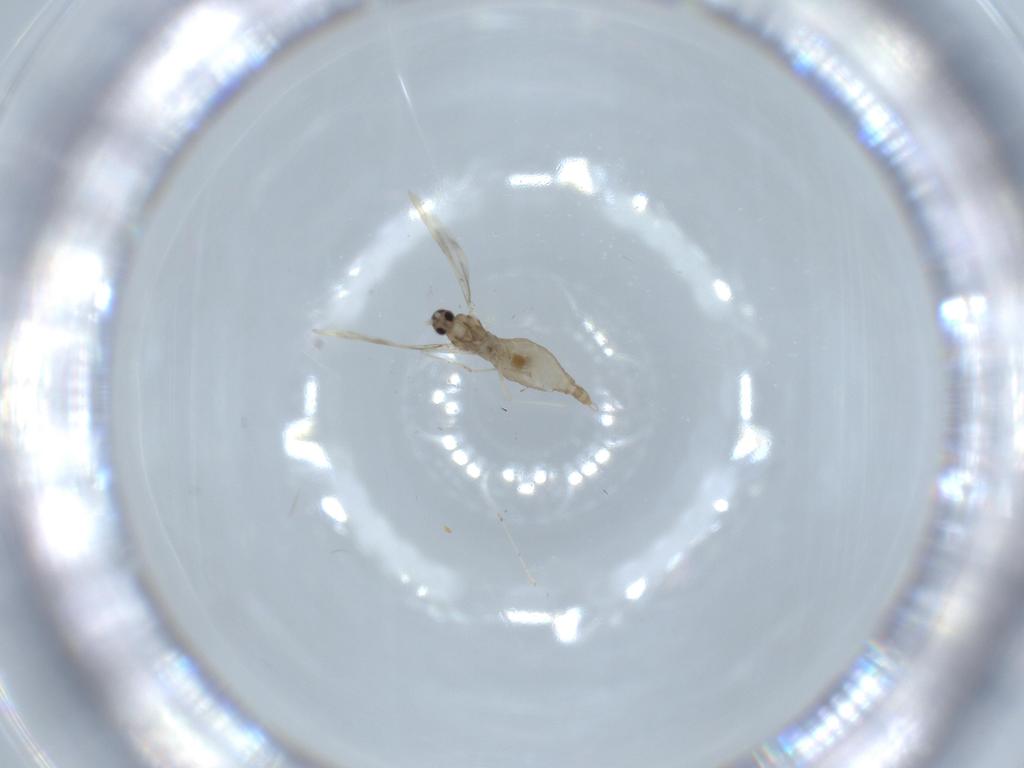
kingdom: Animalia
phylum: Arthropoda
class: Insecta
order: Diptera
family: Cecidomyiidae
